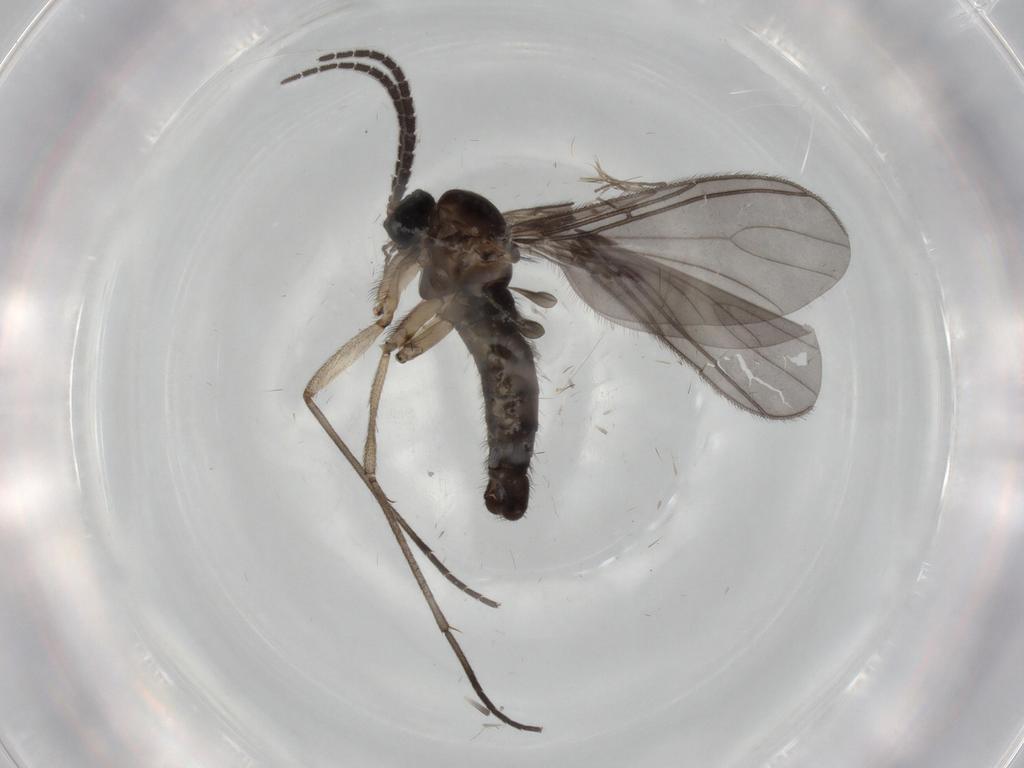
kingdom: Animalia
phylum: Arthropoda
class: Insecta
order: Diptera
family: Sciaridae
